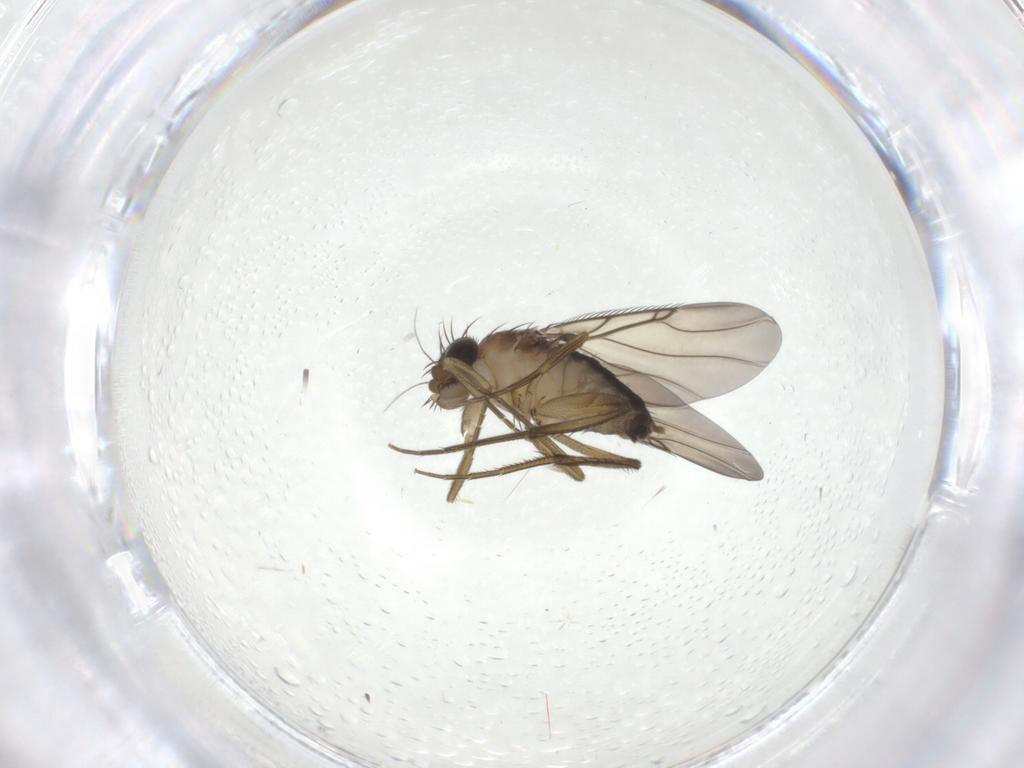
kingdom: Animalia
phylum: Arthropoda
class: Insecta
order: Diptera
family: Phoridae
